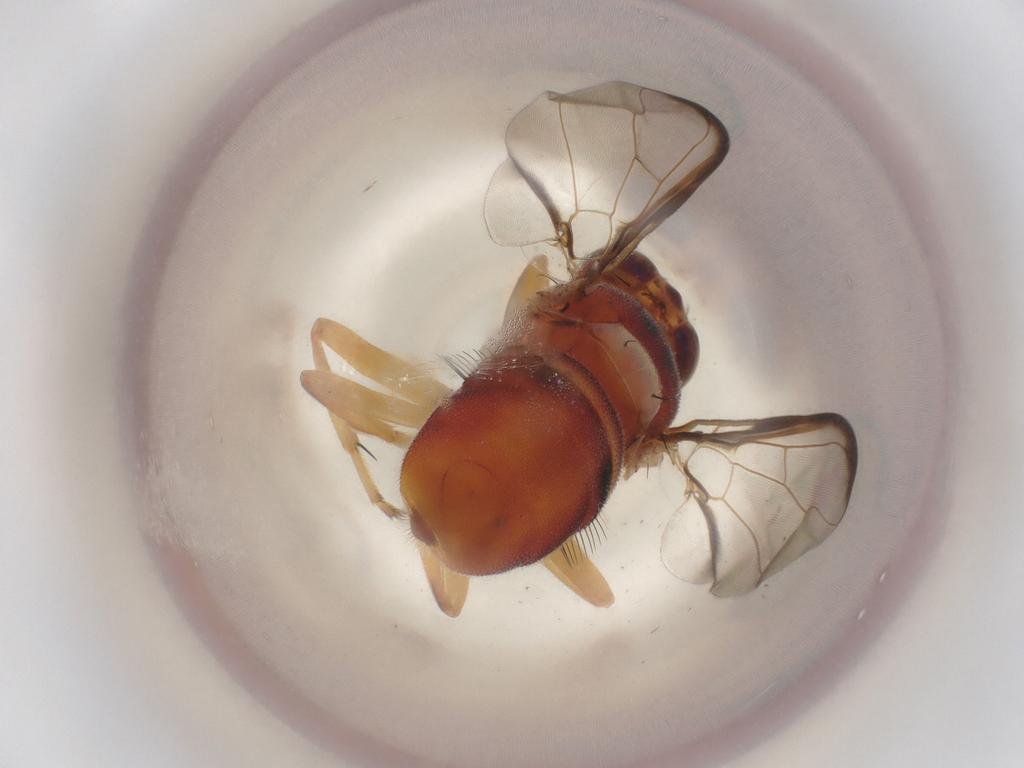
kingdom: Animalia
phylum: Arthropoda
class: Insecta
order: Diptera
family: Tephritidae
